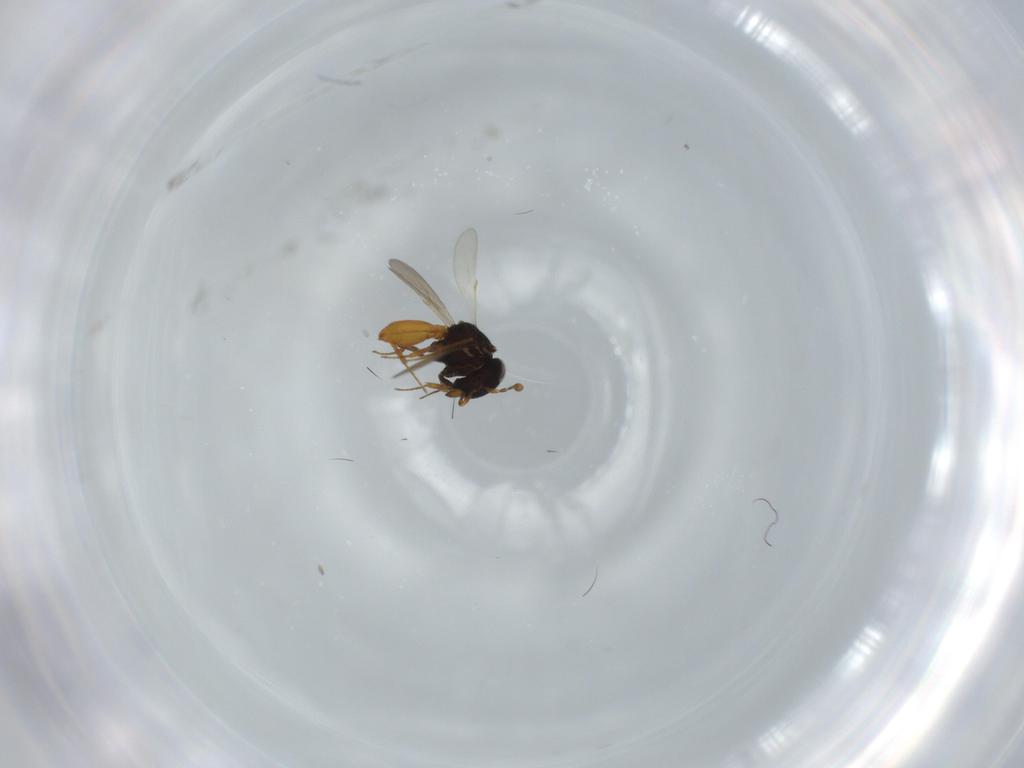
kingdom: Animalia
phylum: Arthropoda
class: Insecta
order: Hymenoptera
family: Scelionidae
